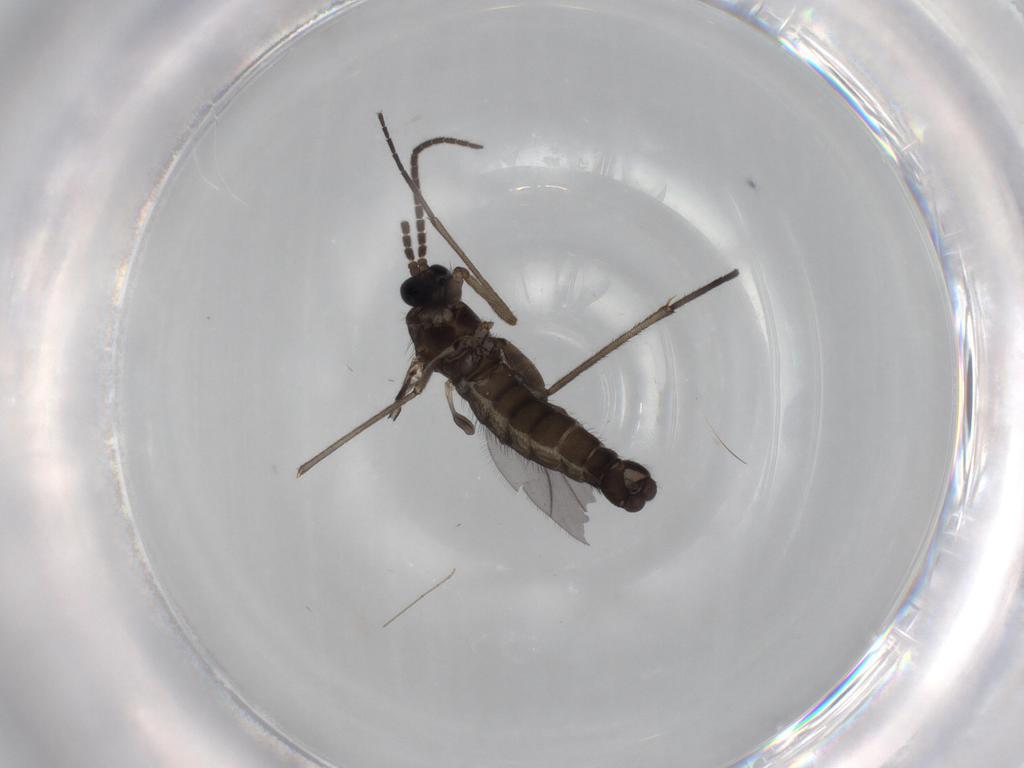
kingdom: Animalia
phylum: Arthropoda
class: Insecta
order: Diptera
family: Sciaridae
